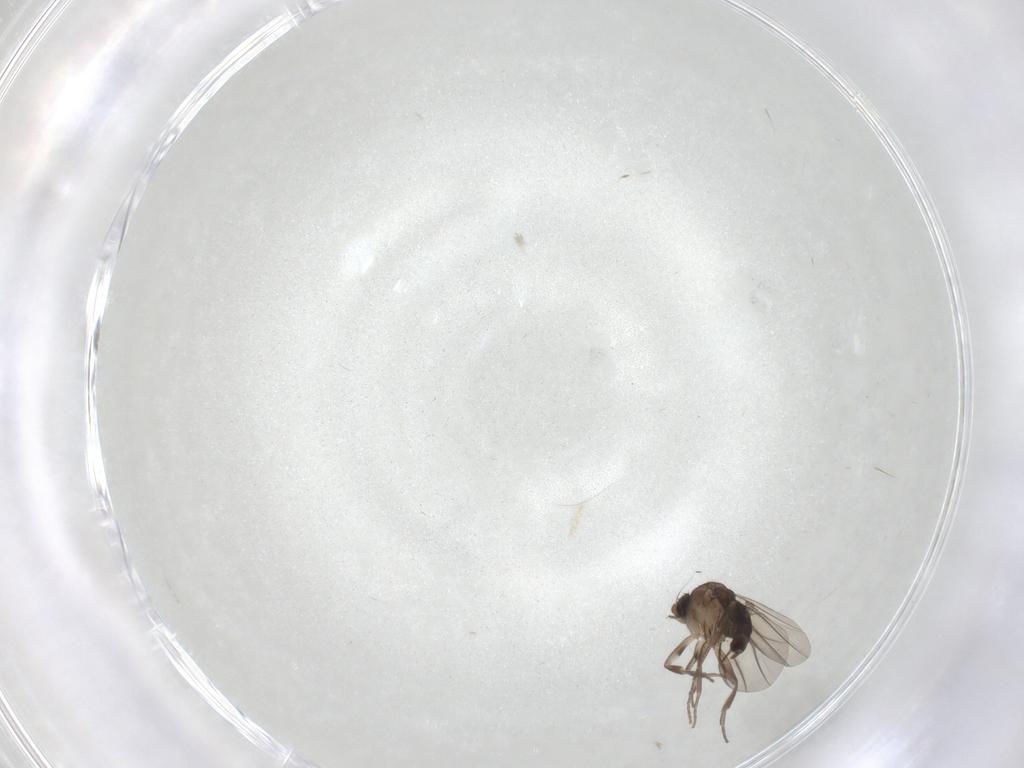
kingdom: Animalia
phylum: Arthropoda
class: Insecta
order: Diptera
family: Phoridae
